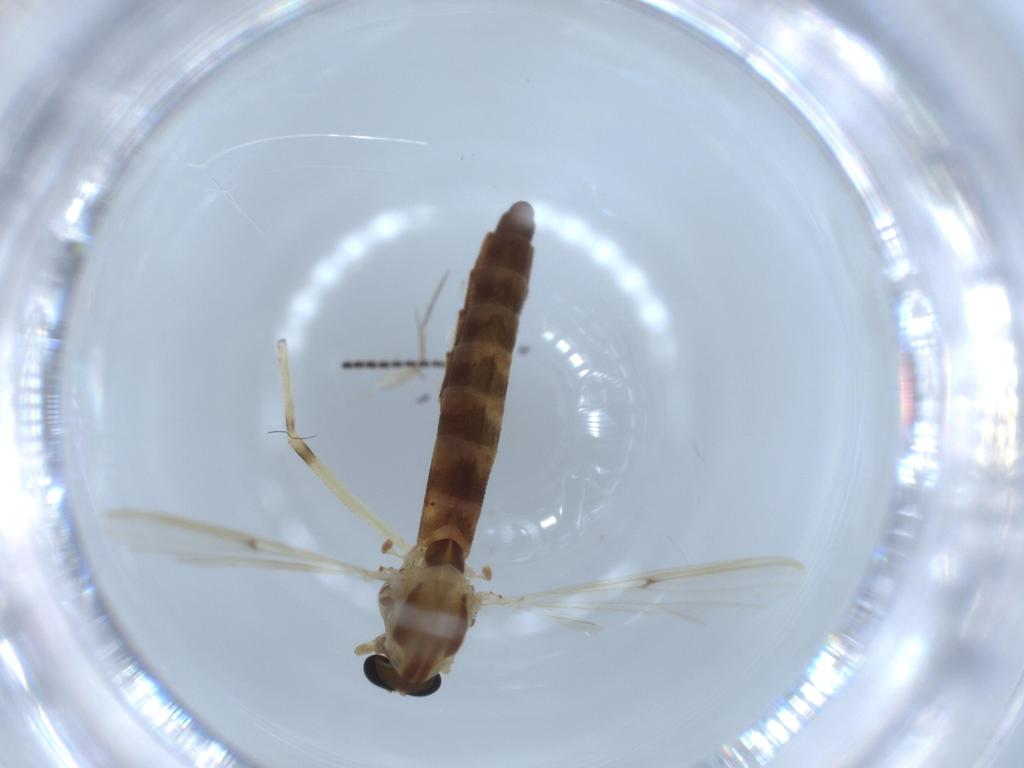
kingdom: Animalia
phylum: Arthropoda
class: Insecta
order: Diptera
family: Chironomidae
